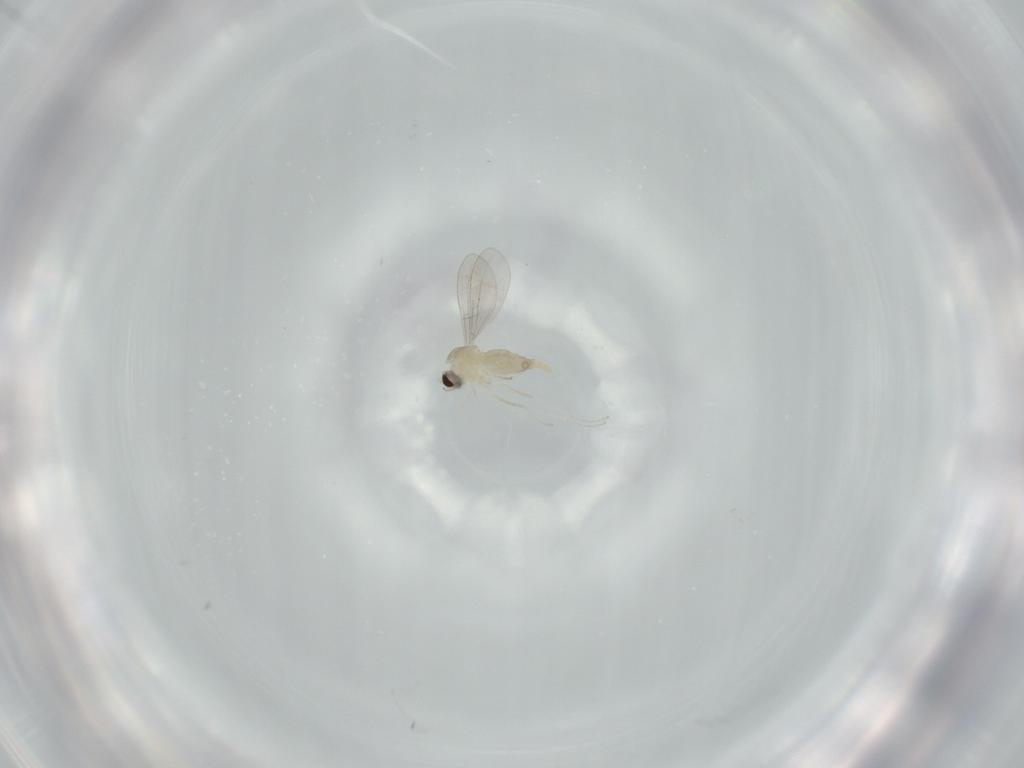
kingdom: Animalia
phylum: Arthropoda
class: Insecta
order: Diptera
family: Cecidomyiidae
